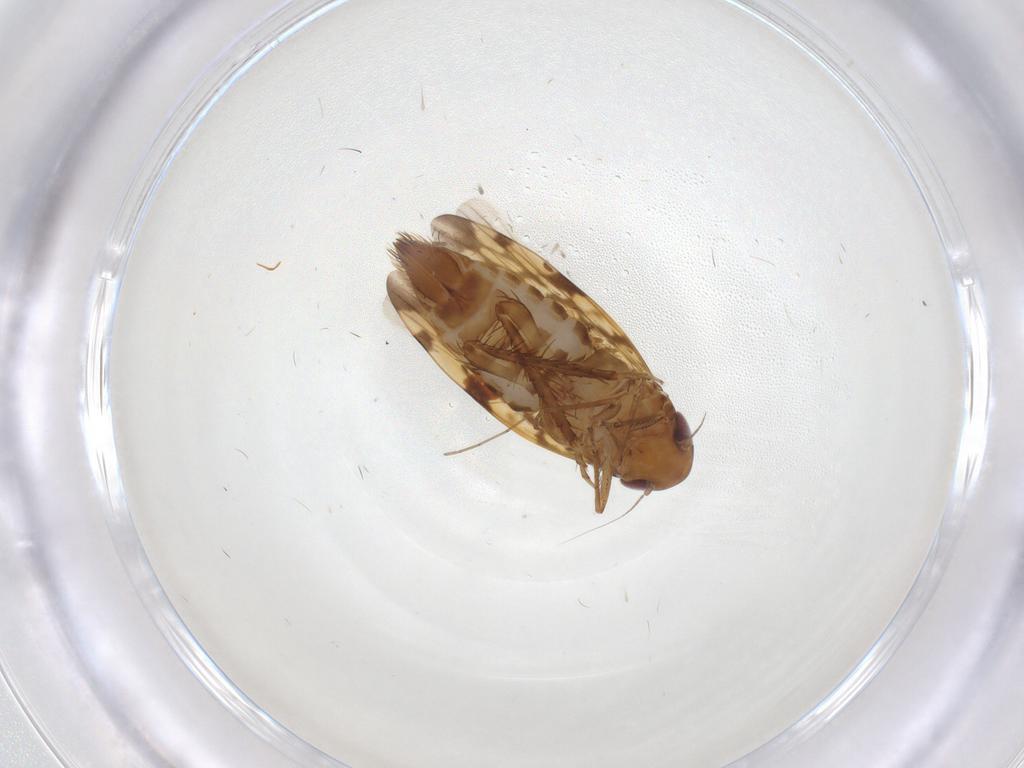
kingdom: Animalia
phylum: Arthropoda
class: Insecta
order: Hemiptera
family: Cicadellidae
